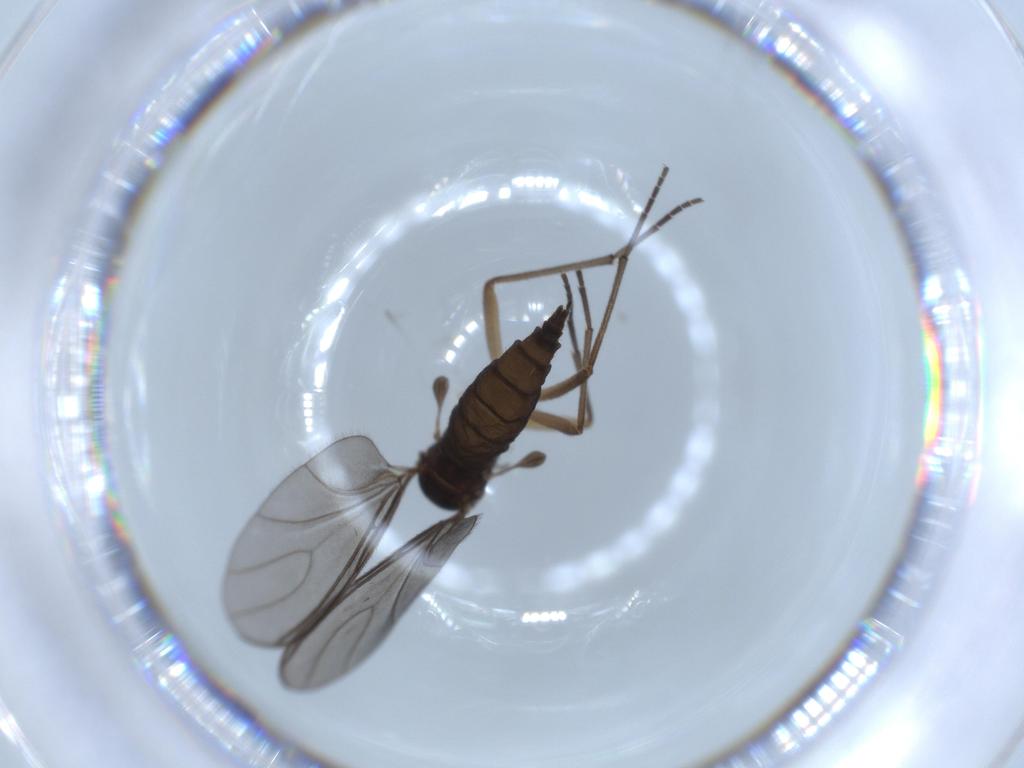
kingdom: Animalia
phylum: Arthropoda
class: Insecta
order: Diptera
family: Sciaridae
